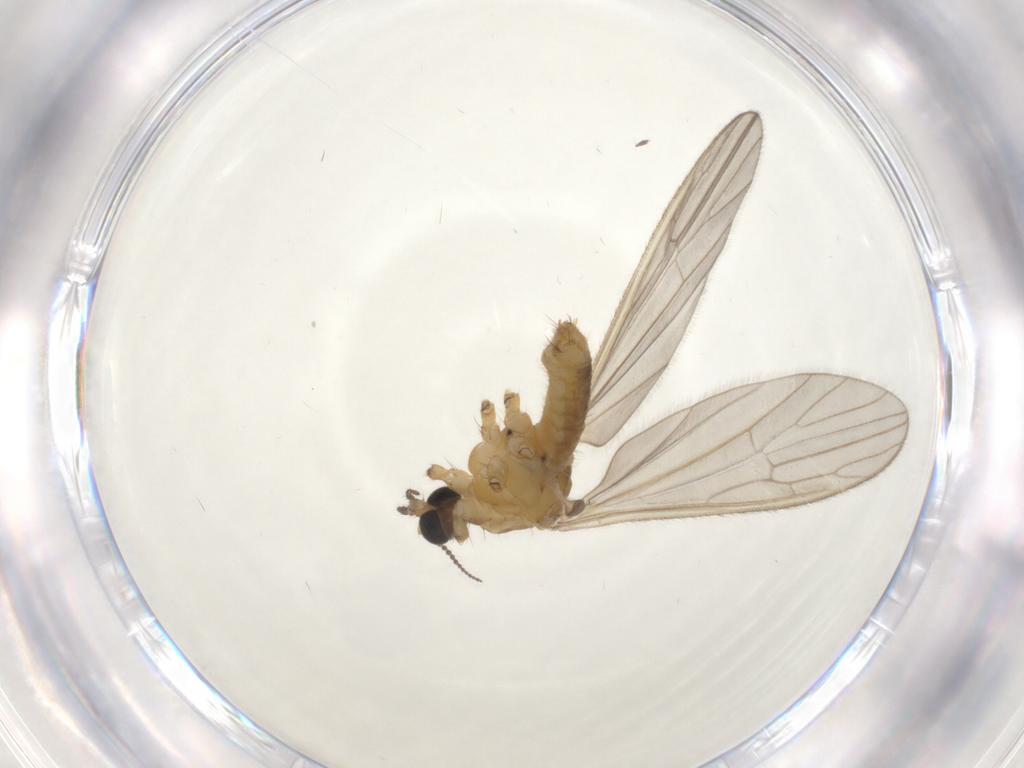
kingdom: Animalia
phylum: Arthropoda
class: Insecta
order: Diptera
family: Limoniidae
